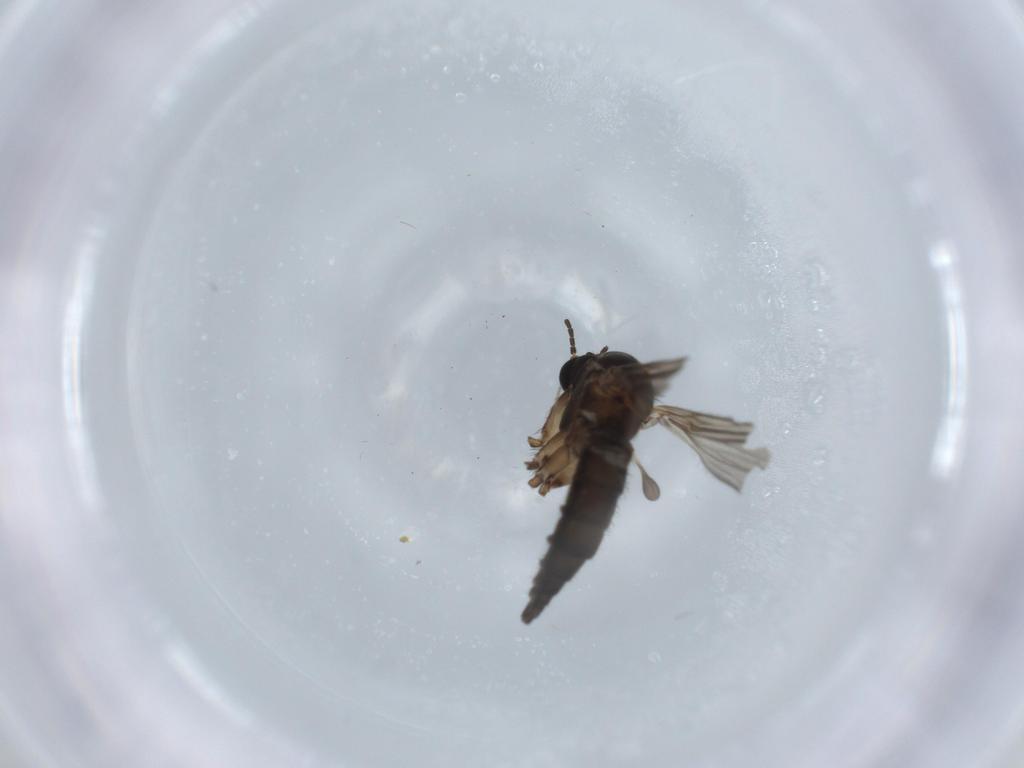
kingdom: Animalia
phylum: Arthropoda
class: Insecta
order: Diptera
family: Sciaridae
